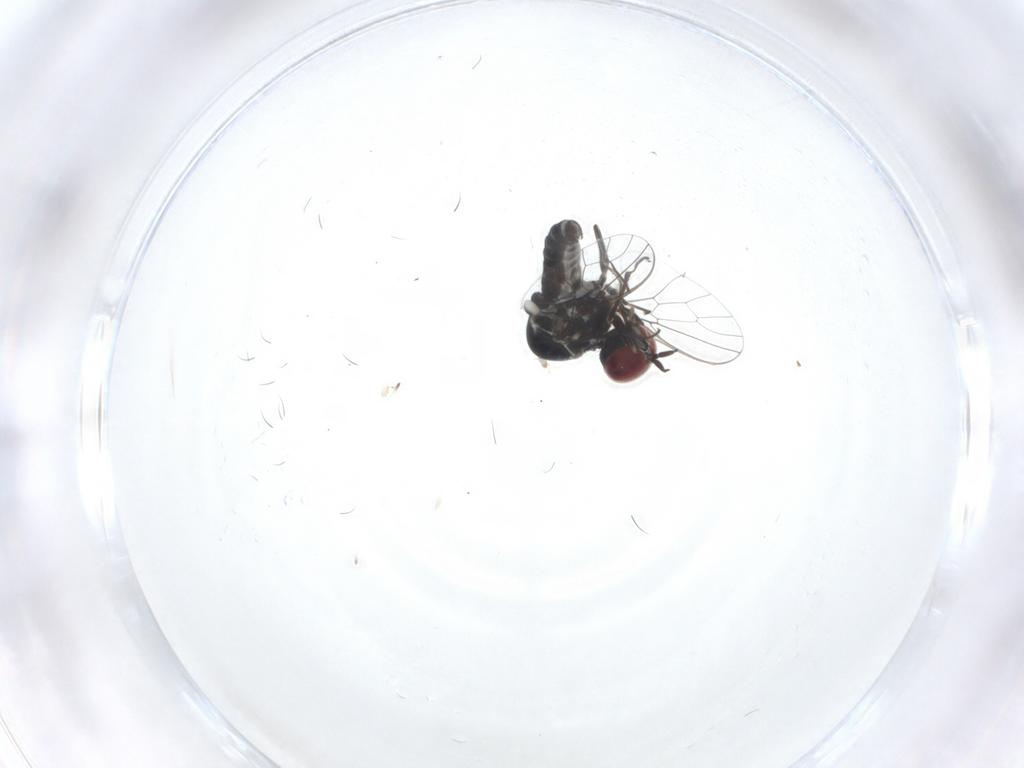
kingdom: Animalia
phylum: Arthropoda
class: Insecta
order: Diptera
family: Mythicomyiidae
